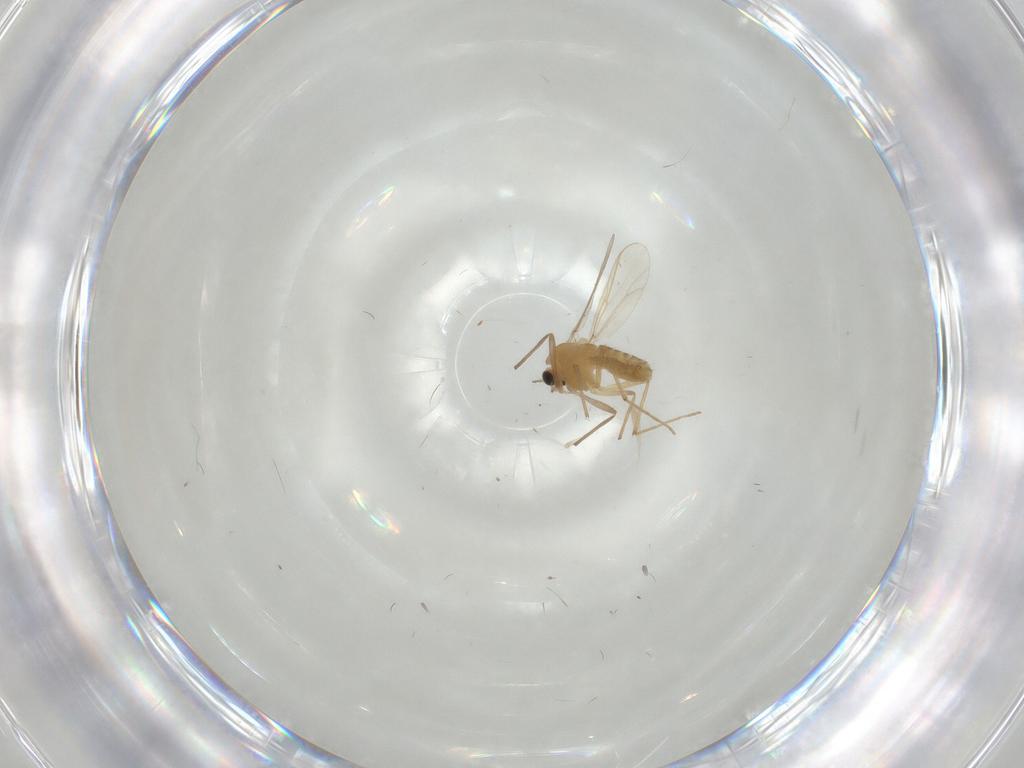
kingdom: Animalia
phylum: Arthropoda
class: Insecta
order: Diptera
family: Chironomidae
